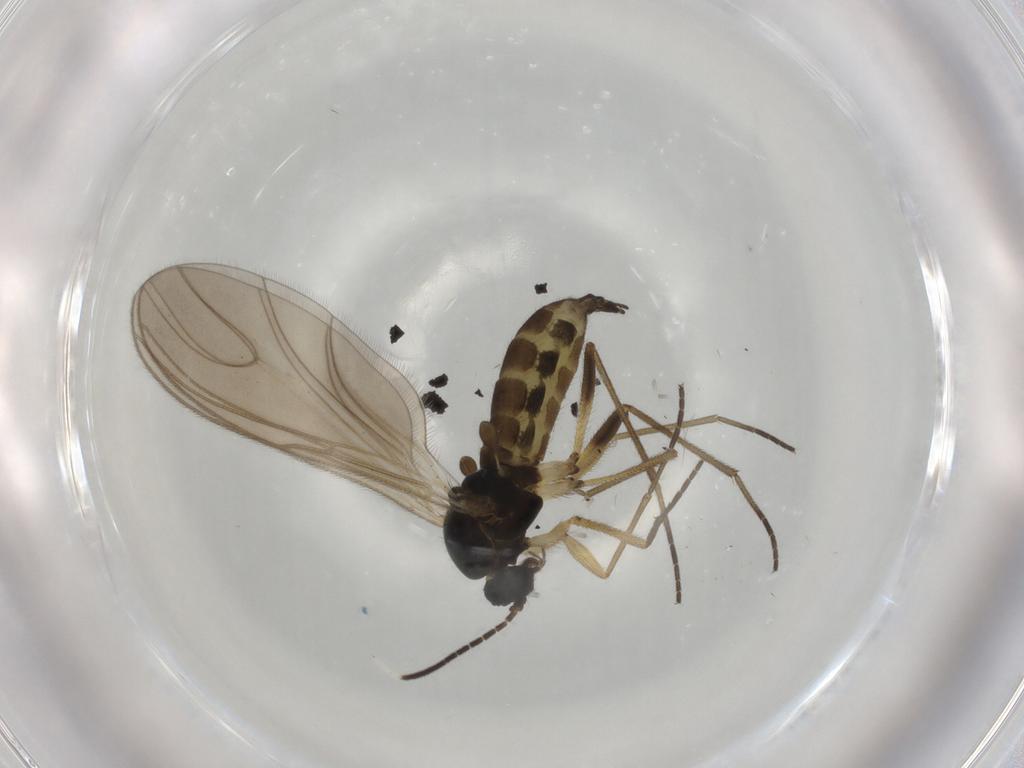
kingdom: Animalia
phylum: Arthropoda
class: Insecta
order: Diptera
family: Sciaridae
